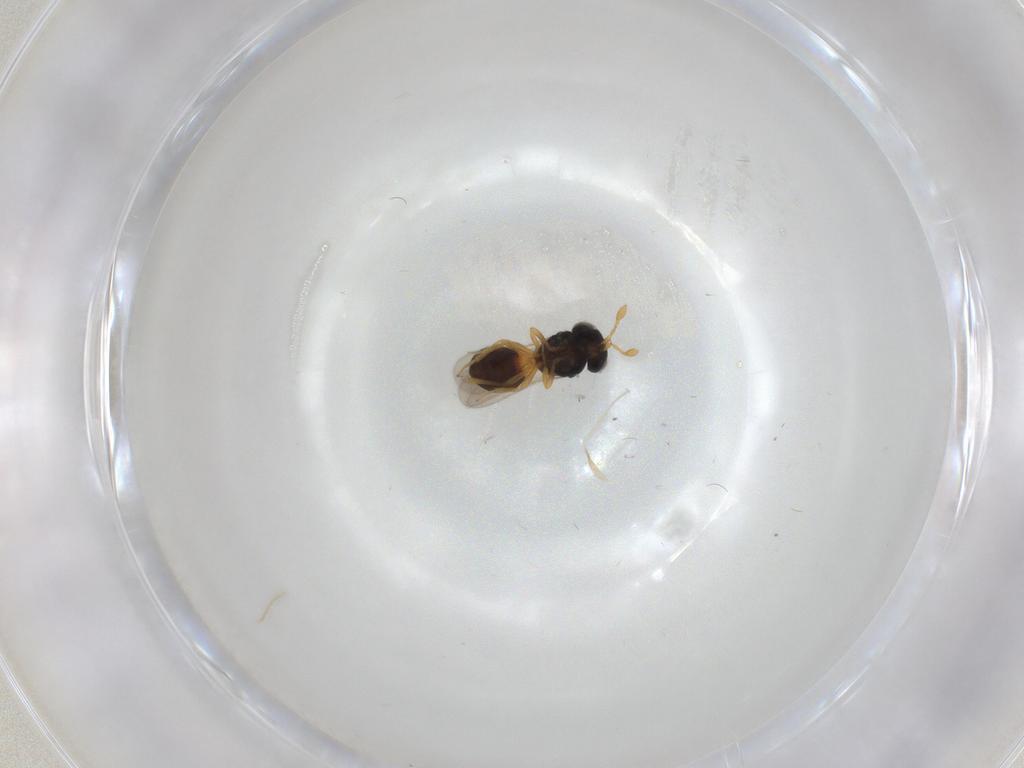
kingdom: Animalia
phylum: Arthropoda
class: Insecta
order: Hymenoptera
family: Scelionidae
